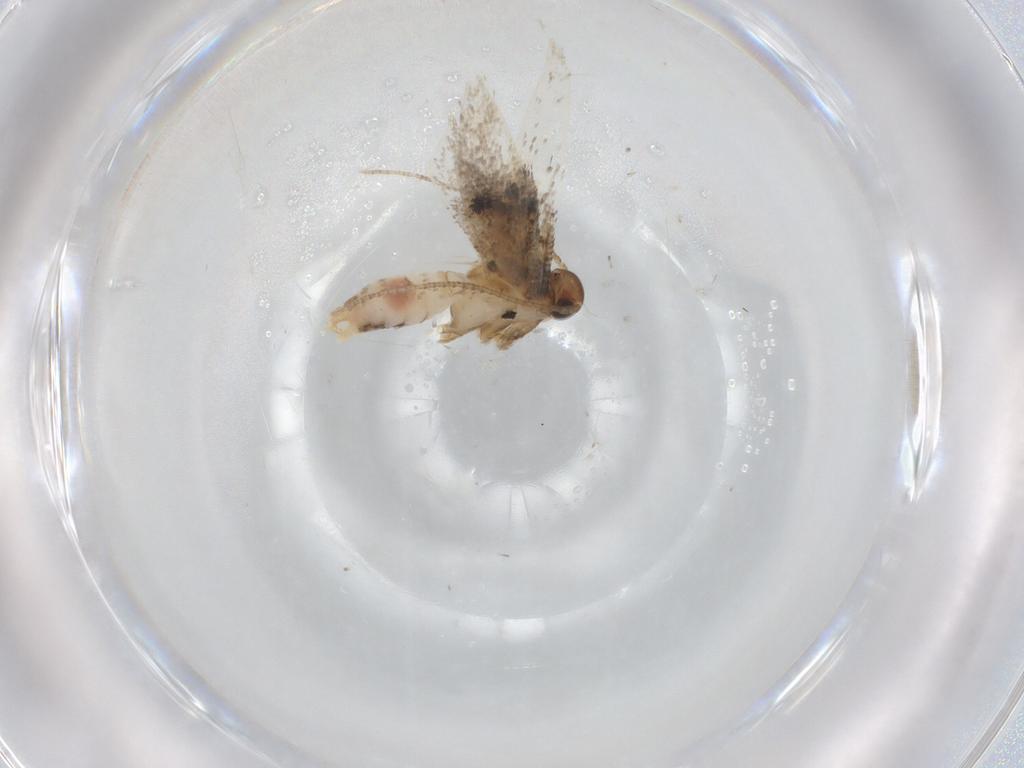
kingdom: Animalia
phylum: Arthropoda
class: Insecta
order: Lepidoptera
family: Gelechiidae
